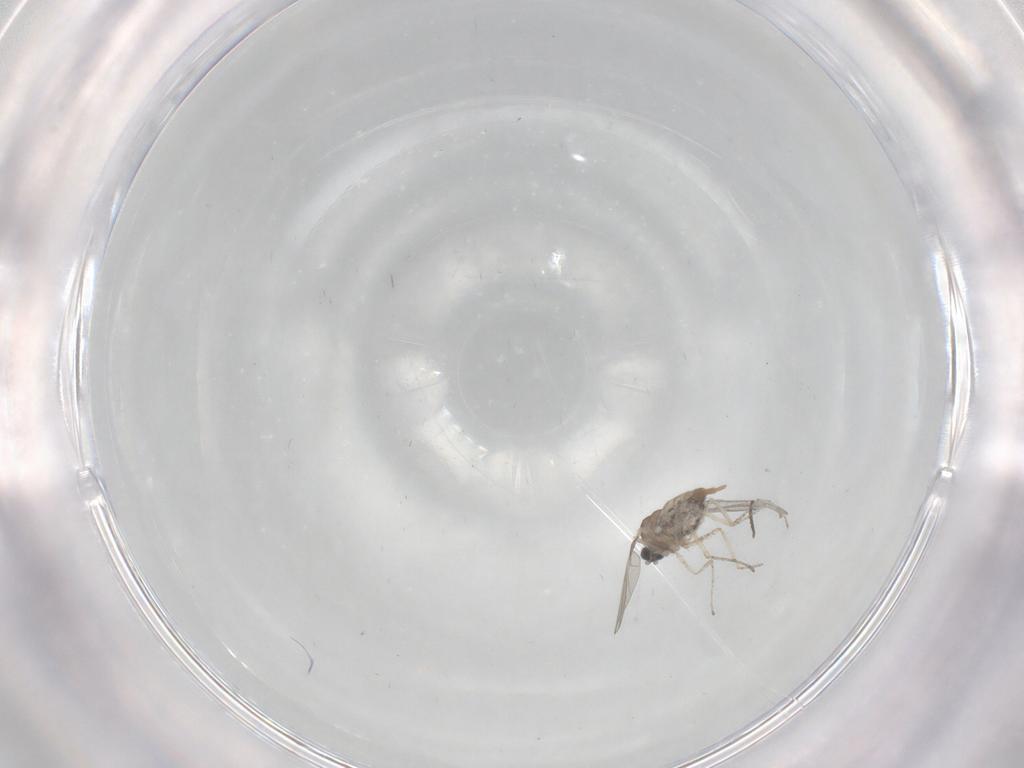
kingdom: Animalia
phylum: Arthropoda
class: Insecta
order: Diptera
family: Cecidomyiidae
